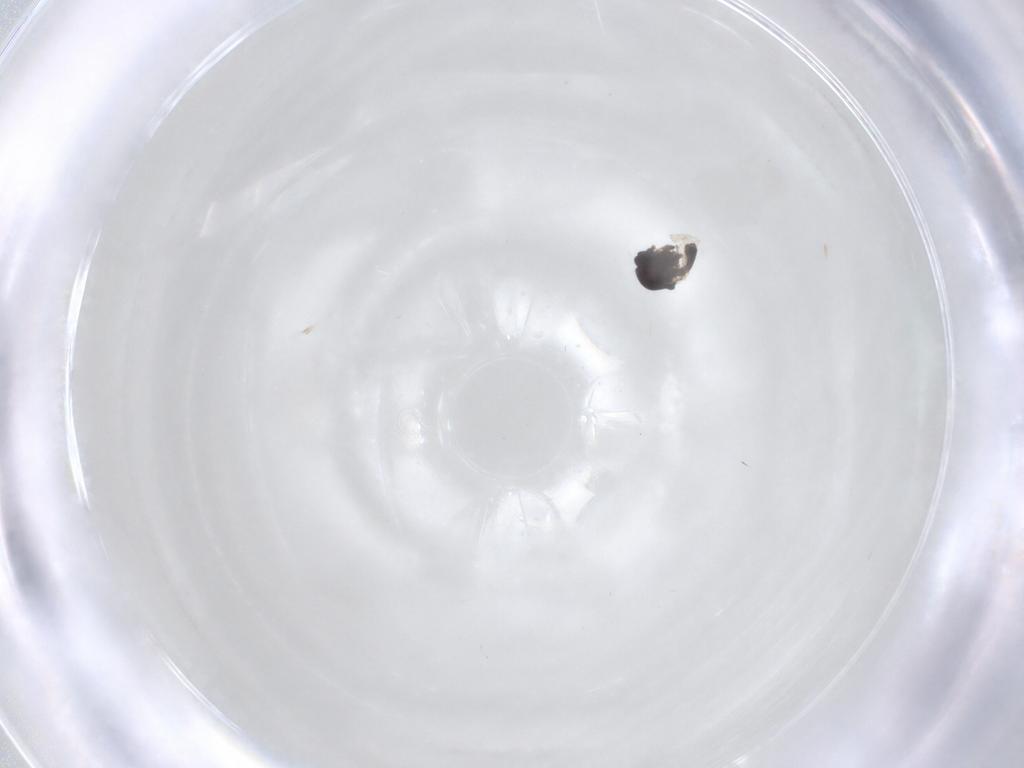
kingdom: Animalia
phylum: Arthropoda
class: Insecta
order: Diptera
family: Ceratopogonidae
